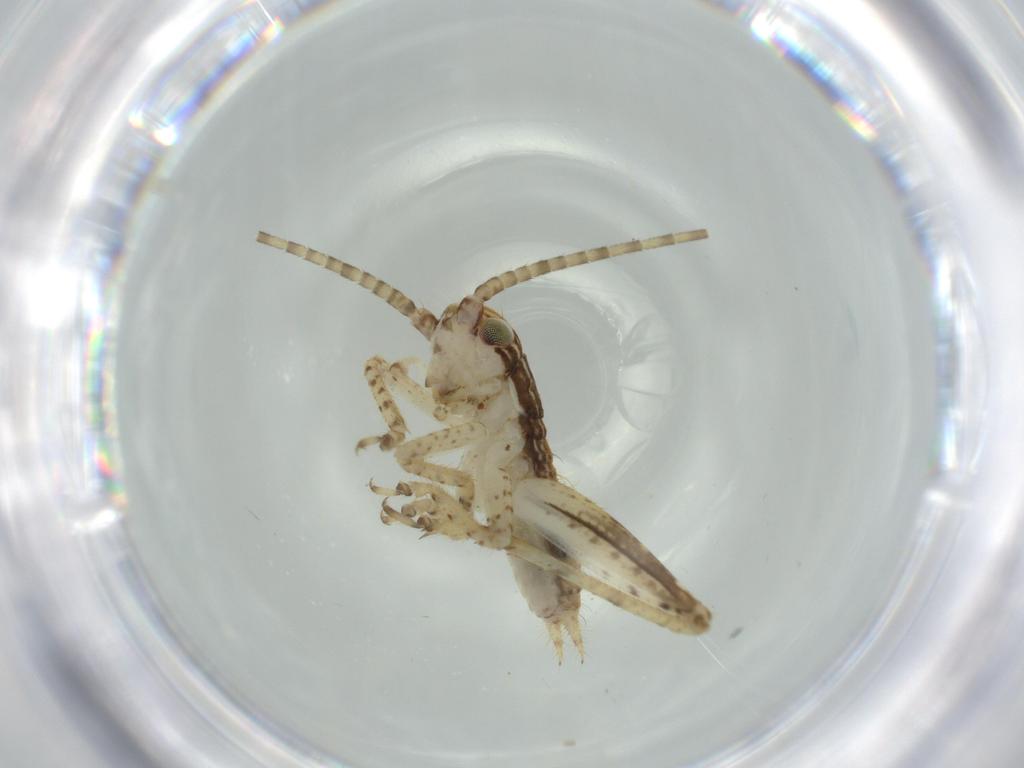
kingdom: Animalia
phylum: Arthropoda
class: Insecta
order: Orthoptera
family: Gryllidae
